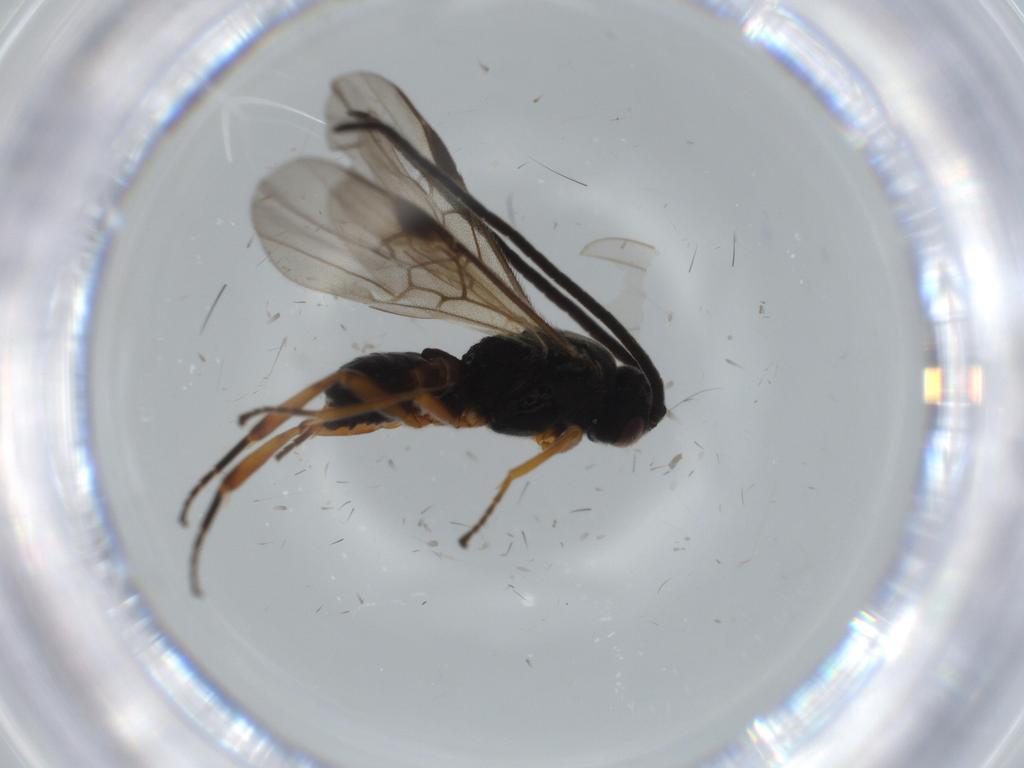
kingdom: Animalia
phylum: Arthropoda
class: Insecta
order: Hymenoptera
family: Braconidae
